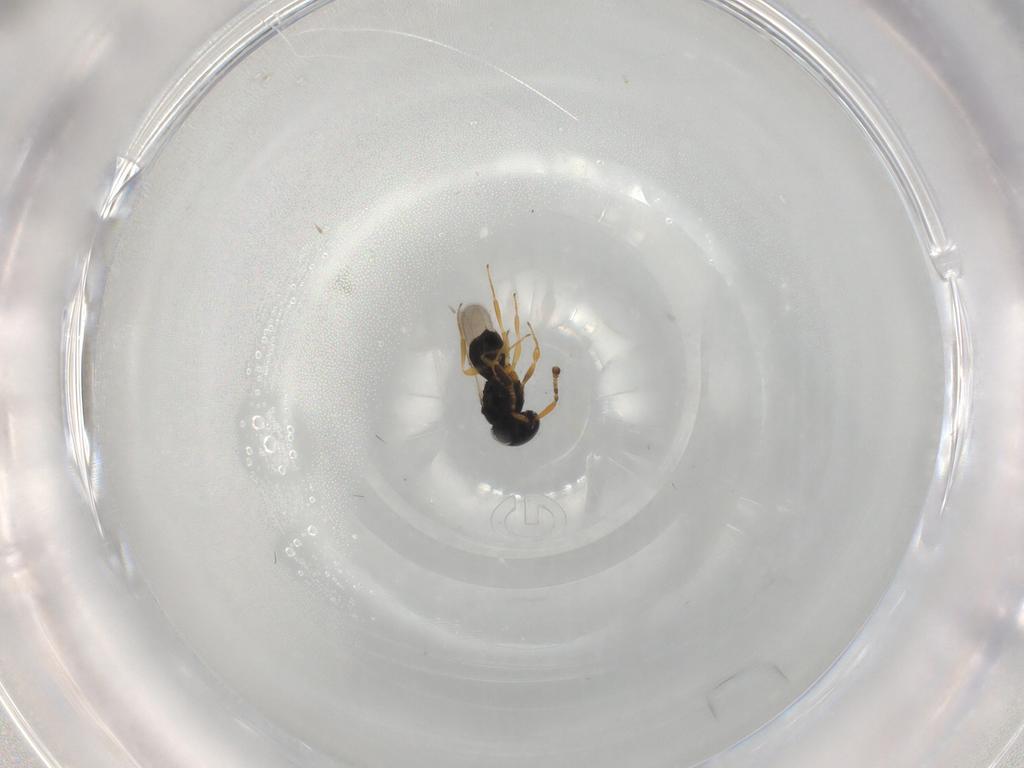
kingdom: Animalia
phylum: Arthropoda
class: Insecta
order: Hymenoptera
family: Scelionidae
